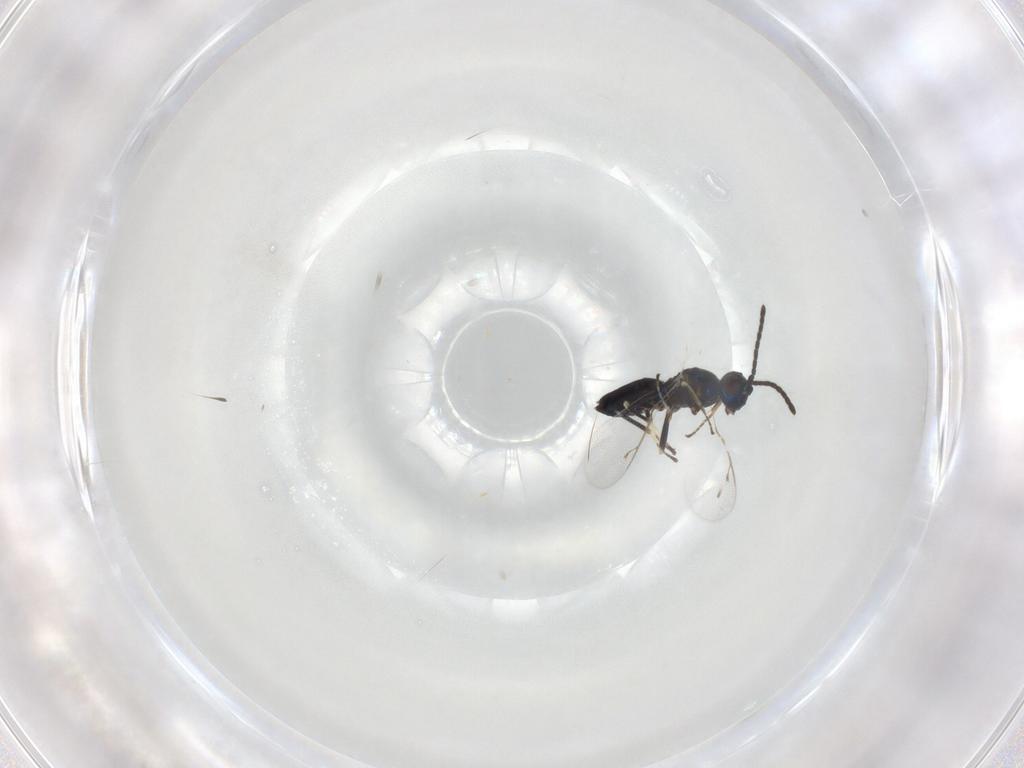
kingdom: Animalia
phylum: Arthropoda
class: Insecta
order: Hymenoptera
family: Eupelmidae
